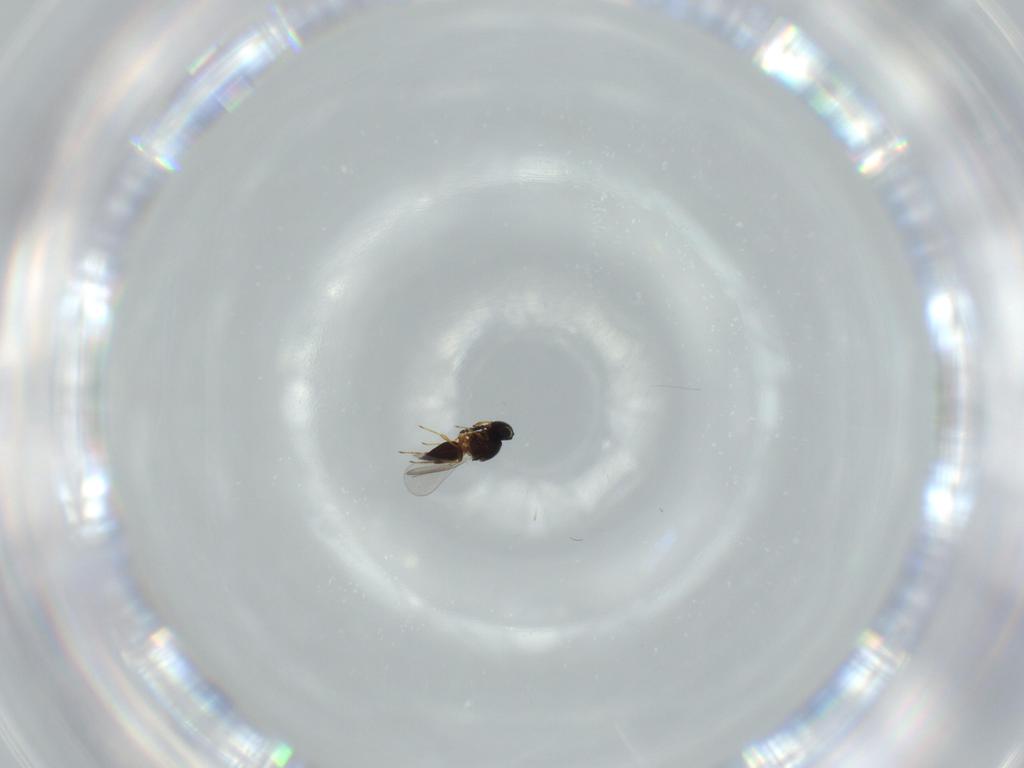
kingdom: Animalia
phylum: Arthropoda
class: Insecta
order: Hymenoptera
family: Platygastridae
